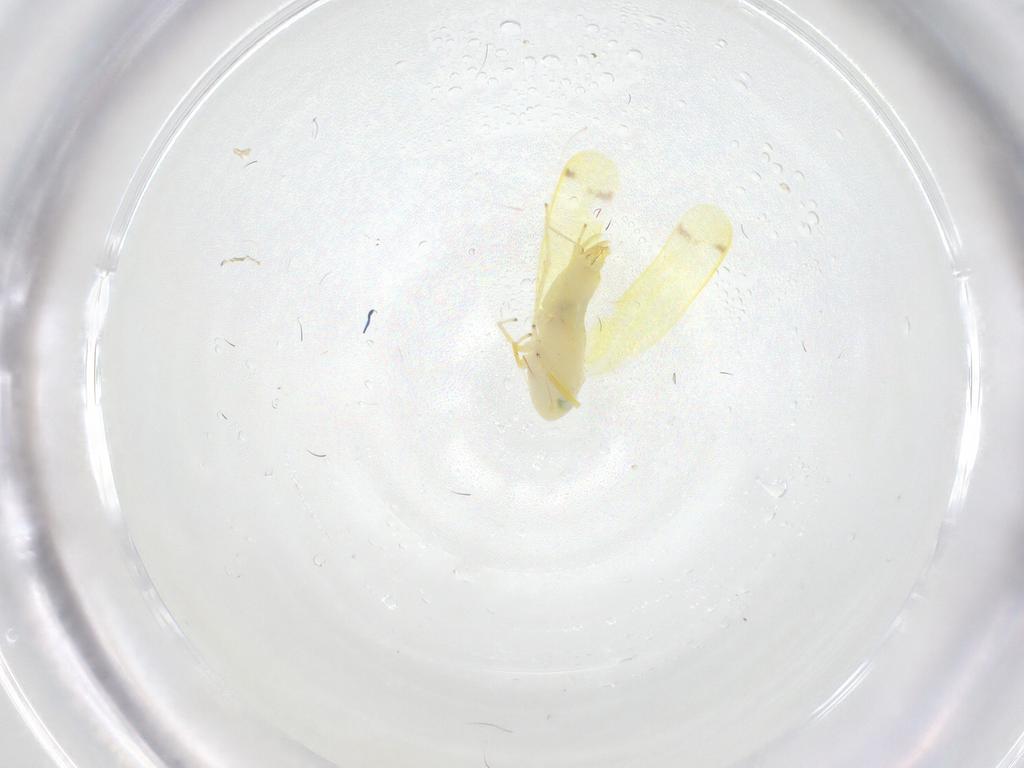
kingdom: Animalia
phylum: Arthropoda
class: Insecta
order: Hemiptera
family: Cicadellidae
